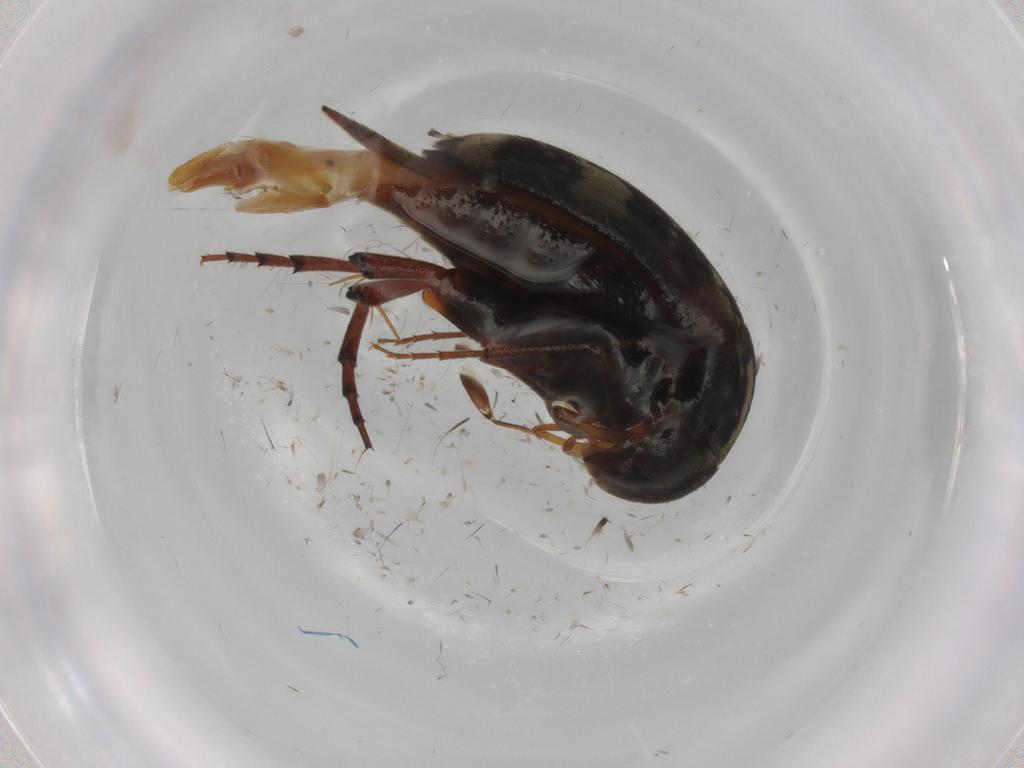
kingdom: Animalia
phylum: Arthropoda
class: Insecta
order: Coleoptera
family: Mordellidae
